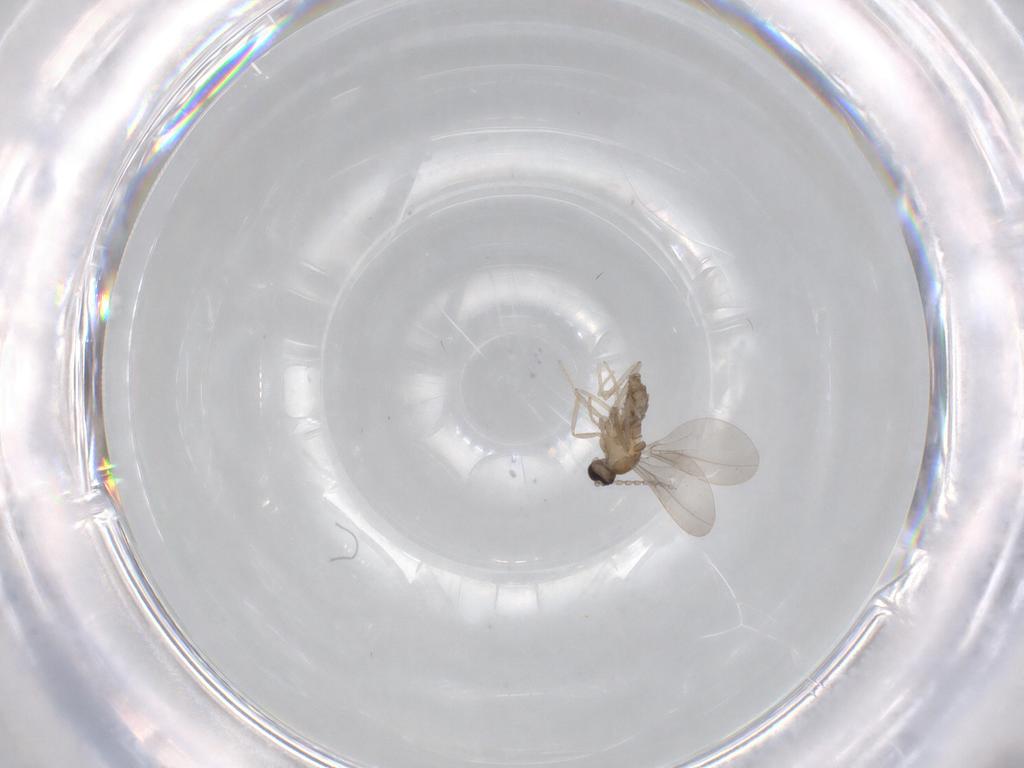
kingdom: Animalia
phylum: Arthropoda
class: Insecta
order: Diptera
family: Cecidomyiidae
